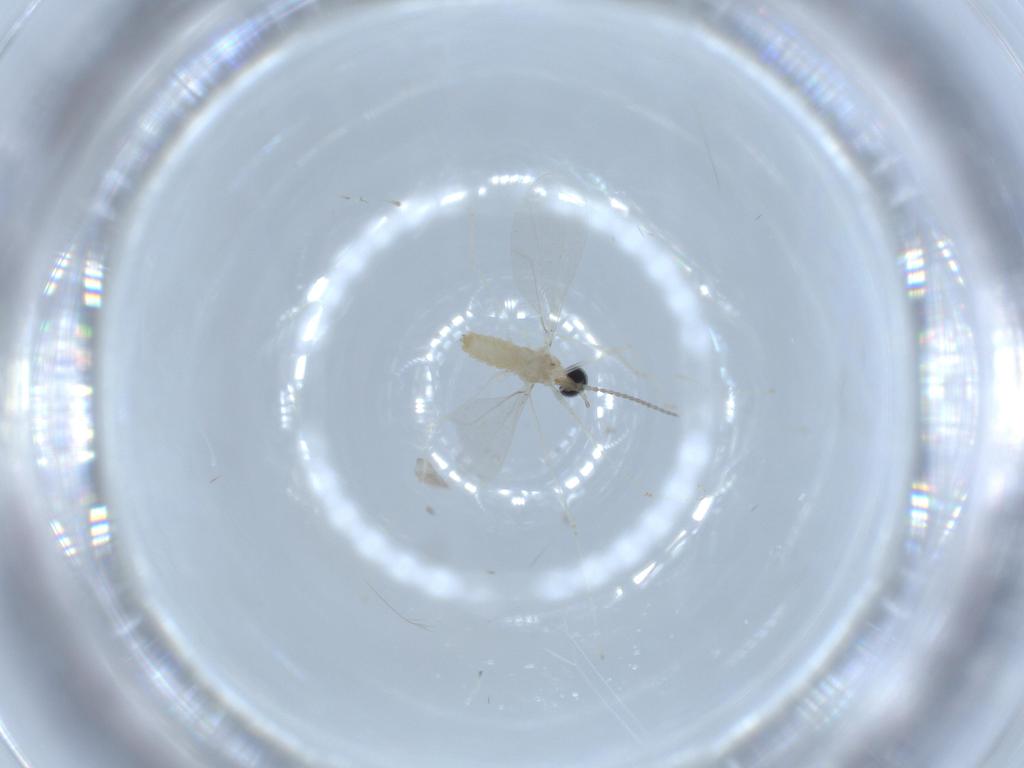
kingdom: Animalia
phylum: Arthropoda
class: Insecta
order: Diptera
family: Cecidomyiidae
